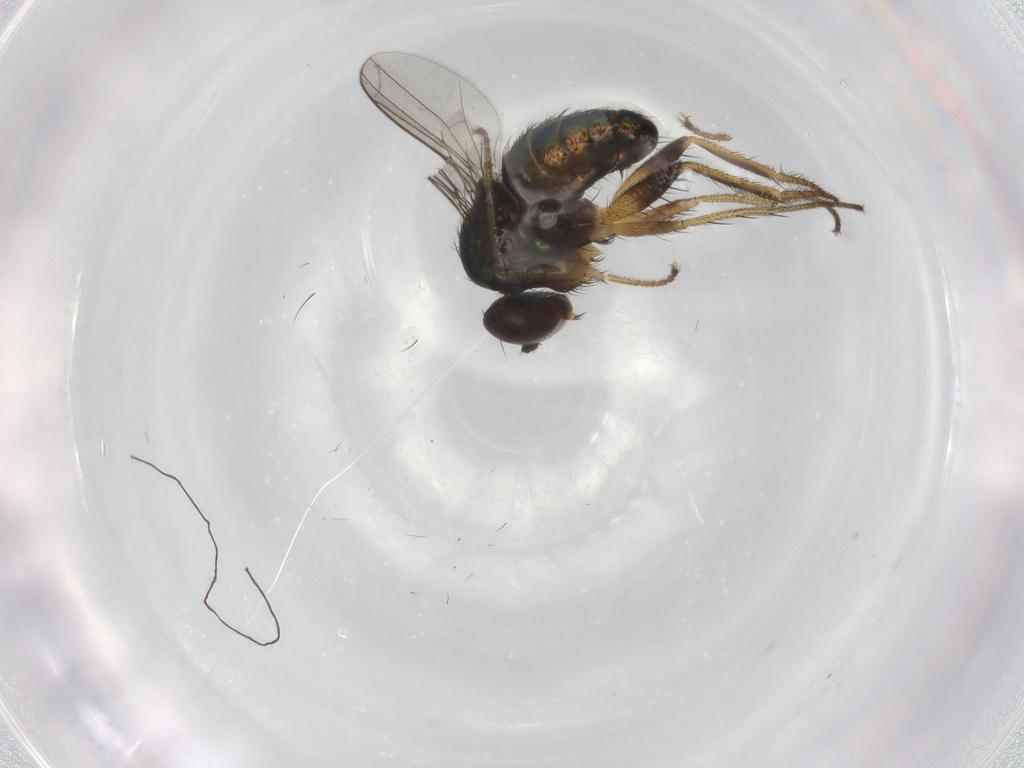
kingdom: Animalia
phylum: Arthropoda
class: Insecta
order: Diptera
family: Dolichopodidae
